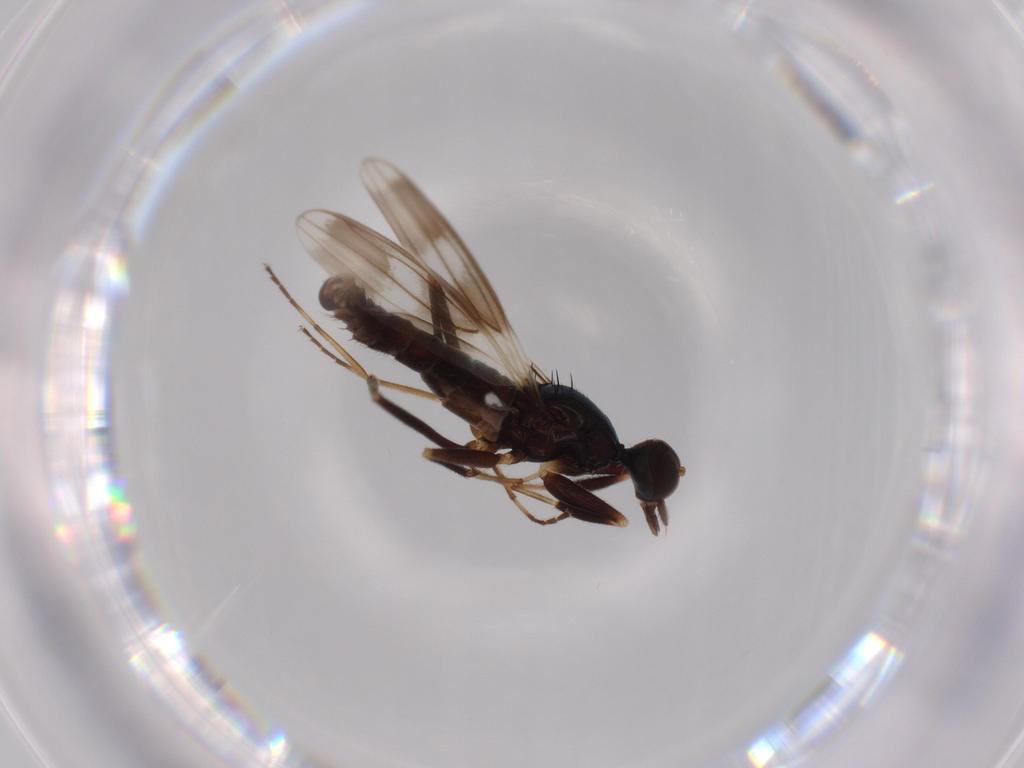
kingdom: Animalia
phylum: Arthropoda
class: Insecta
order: Diptera
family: Hybotidae
